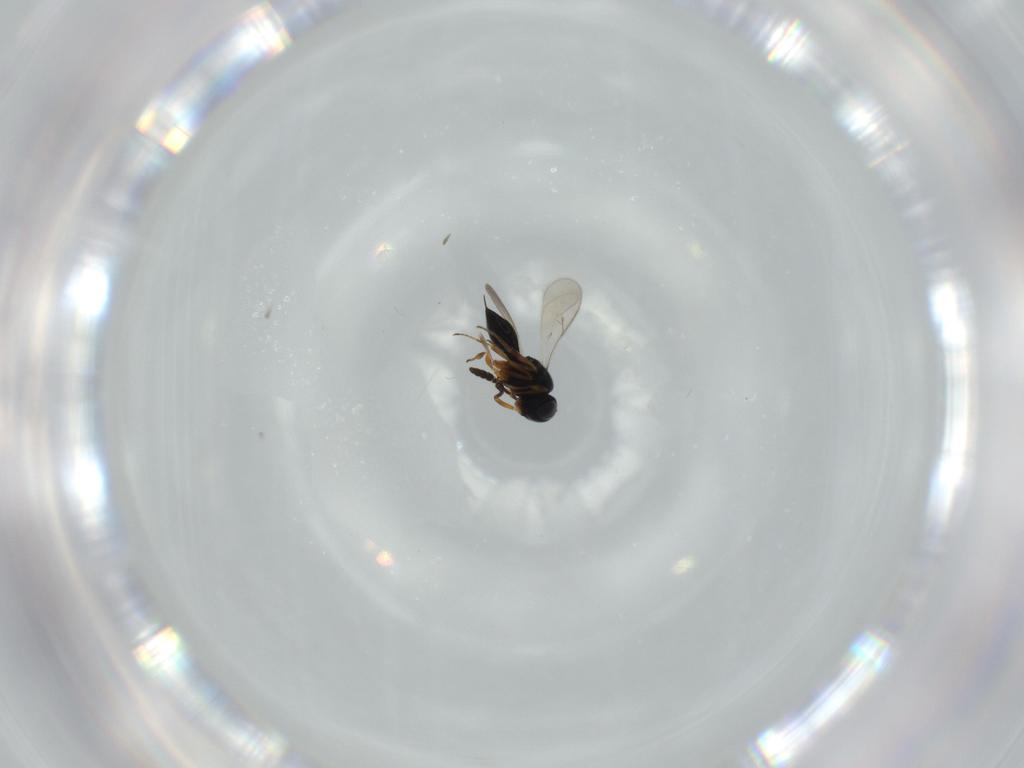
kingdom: Animalia
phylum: Arthropoda
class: Insecta
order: Hymenoptera
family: Scelionidae
